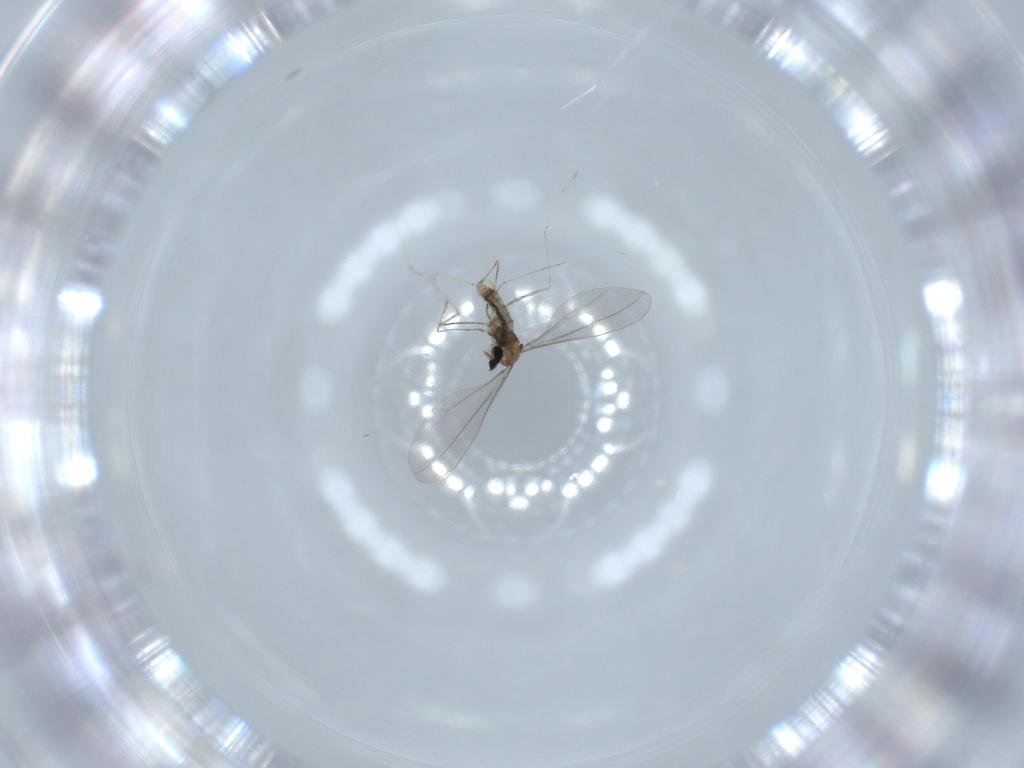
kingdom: Animalia
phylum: Arthropoda
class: Insecta
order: Diptera
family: Cecidomyiidae
